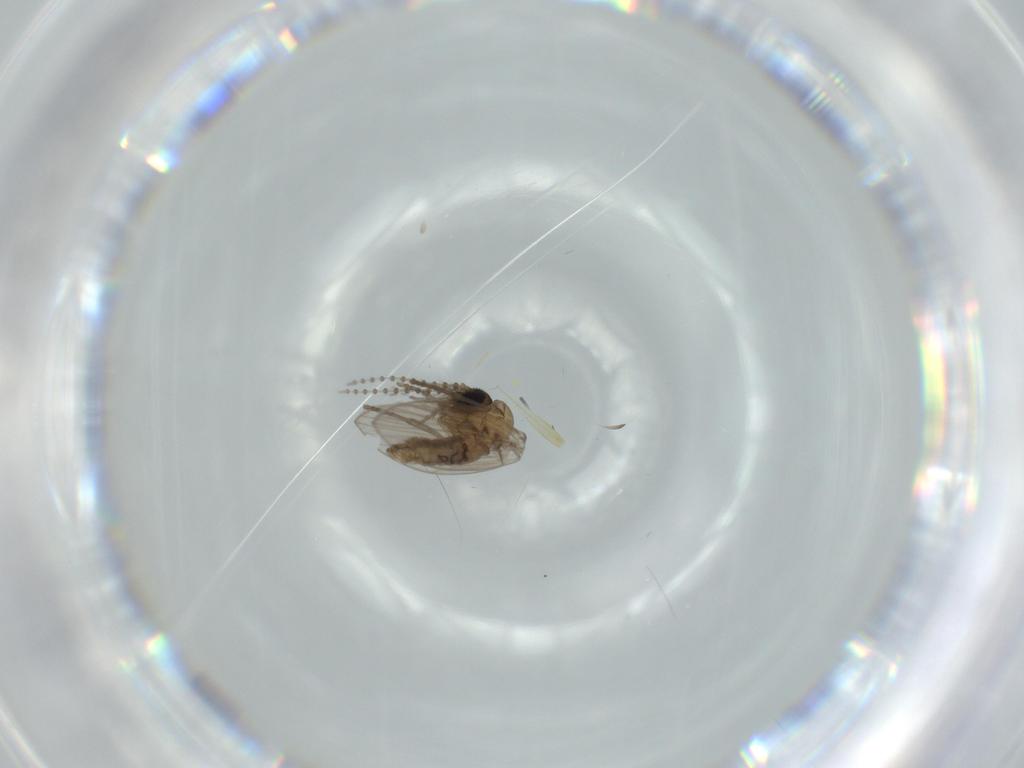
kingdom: Animalia
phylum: Arthropoda
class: Insecta
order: Diptera
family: Psychodidae
